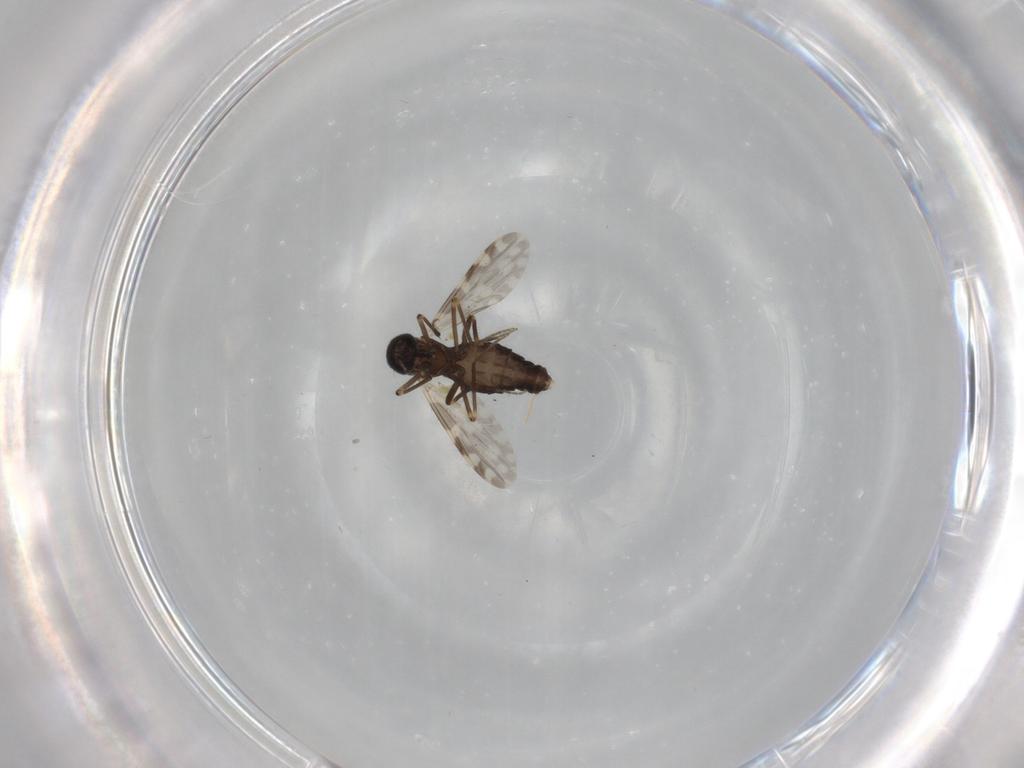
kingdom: Animalia
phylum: Arthropoda
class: Insecta
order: Diptera
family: Ceratopogonidae
